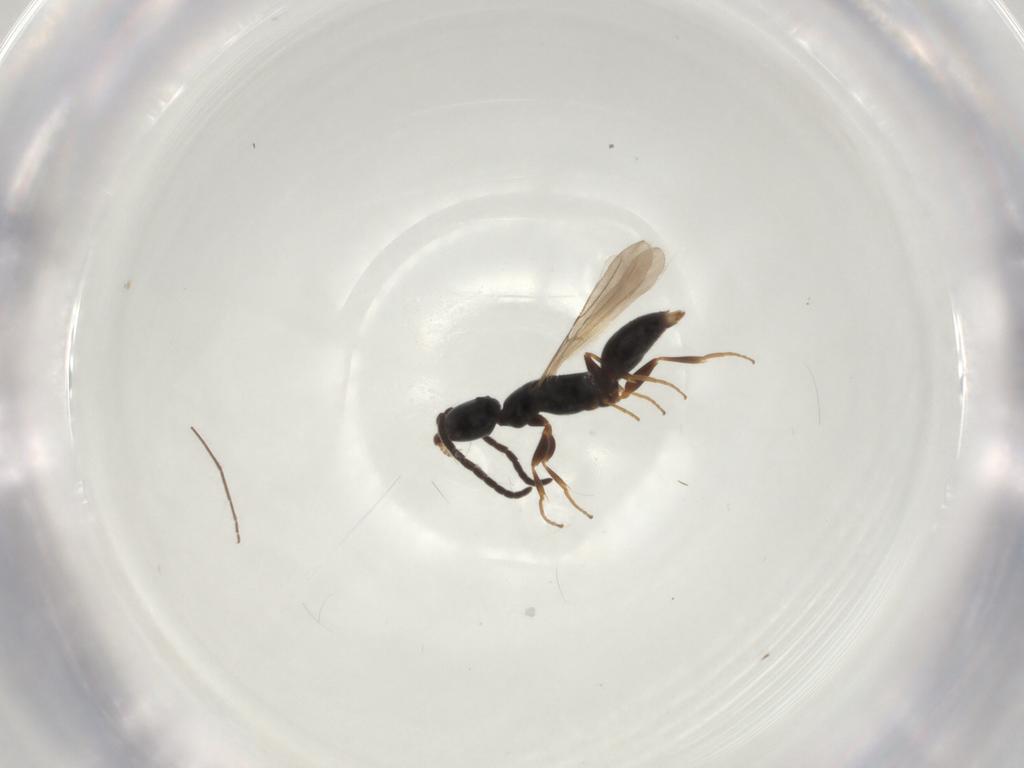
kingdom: Animalia
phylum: Arthropoda
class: Insecta
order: Hymenoptera
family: Bethylidae
